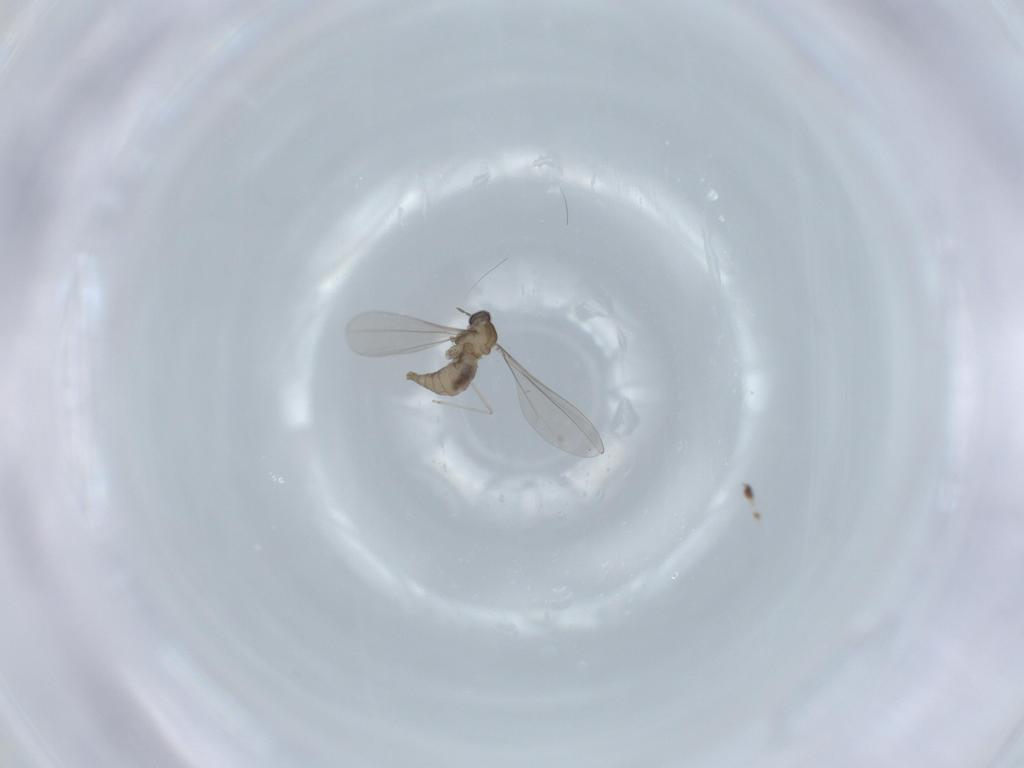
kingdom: Animalia
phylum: Arthropoda
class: Insecta
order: Diptera
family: Cecidomyiidae
